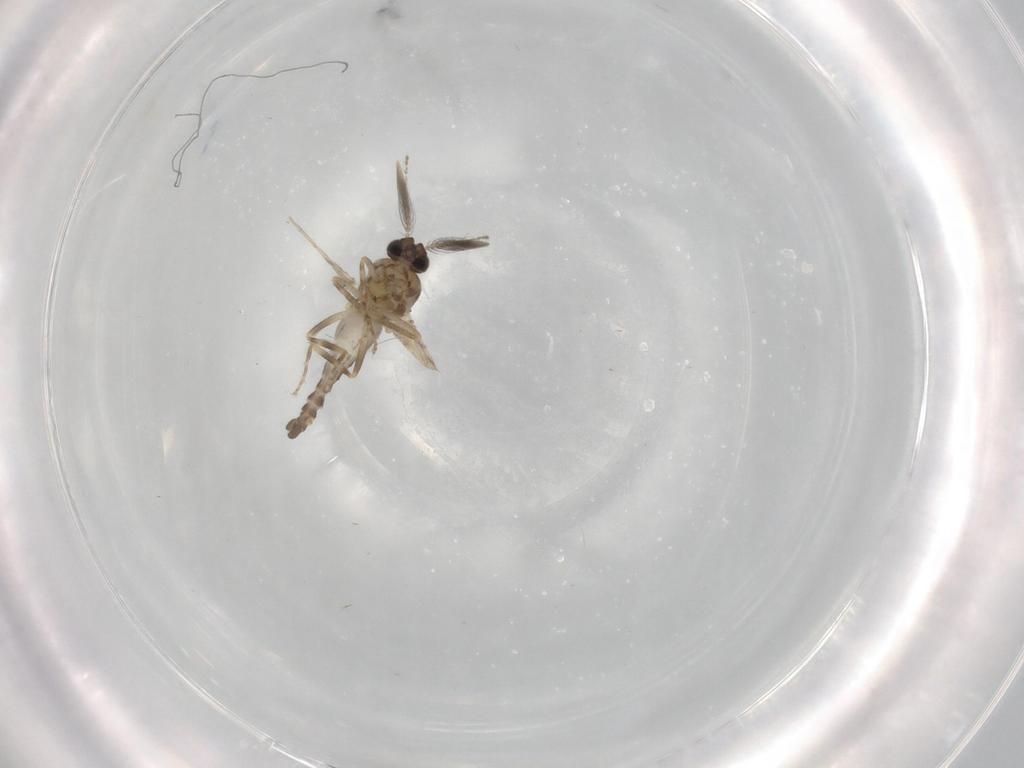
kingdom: Animalia
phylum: Arthropoda
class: Insecta
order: Diptera
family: Ceratopogonidae
